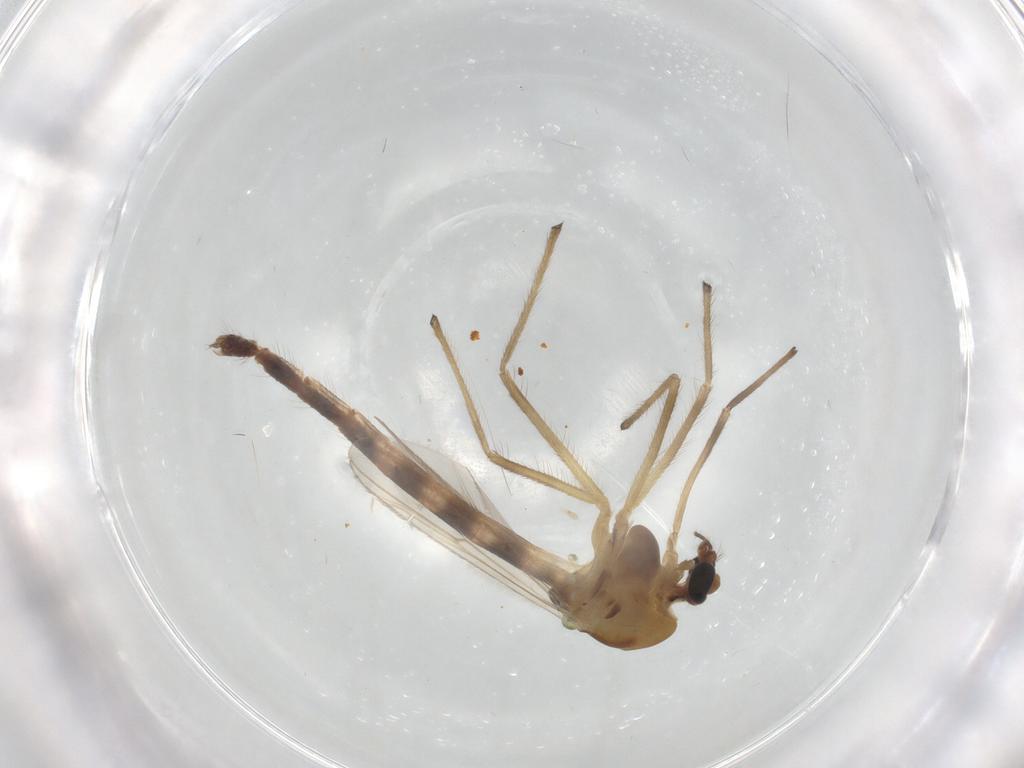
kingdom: Animalia
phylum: Arthropoda
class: Insecta
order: Diptera
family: Chironomidae
